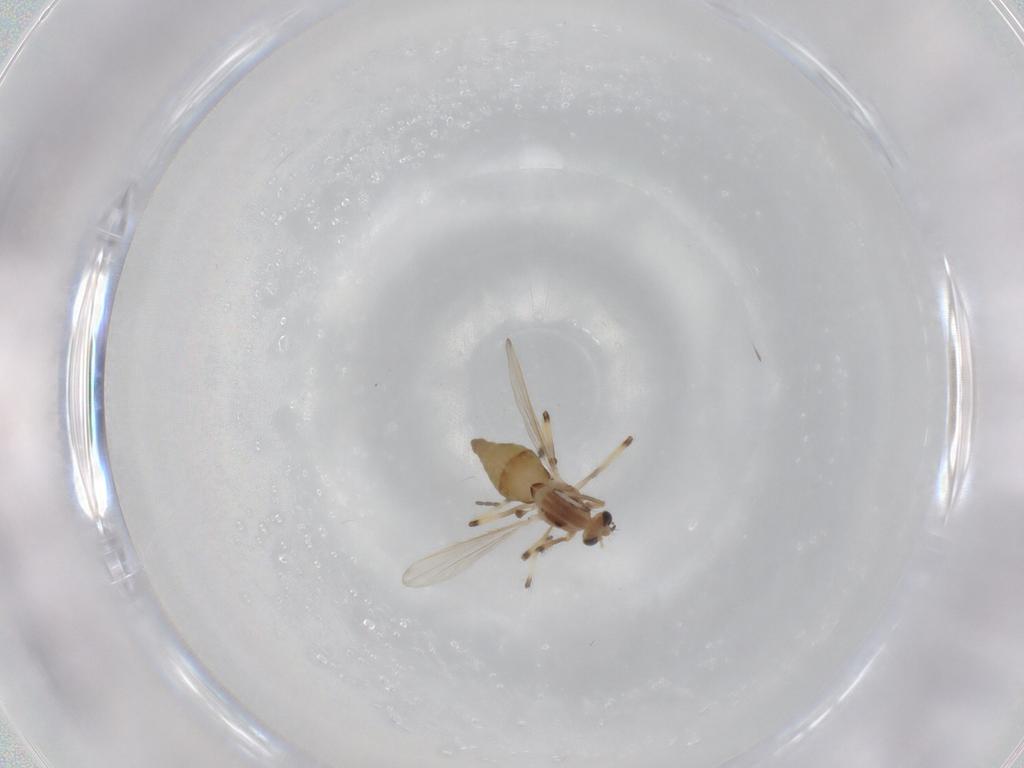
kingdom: Animalia
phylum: Arthropoda
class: Insecta
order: Diptera
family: Chironomidae
